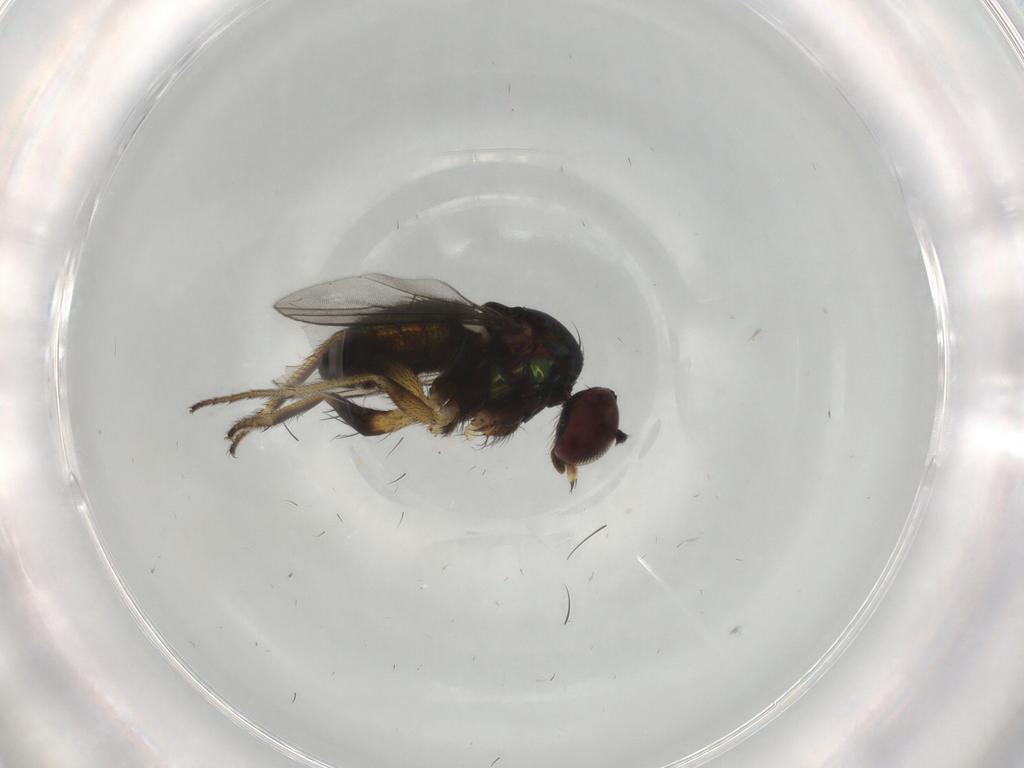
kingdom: Animalia
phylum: Arthropoda
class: Insecta
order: Diptera
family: Dolichopodidae
